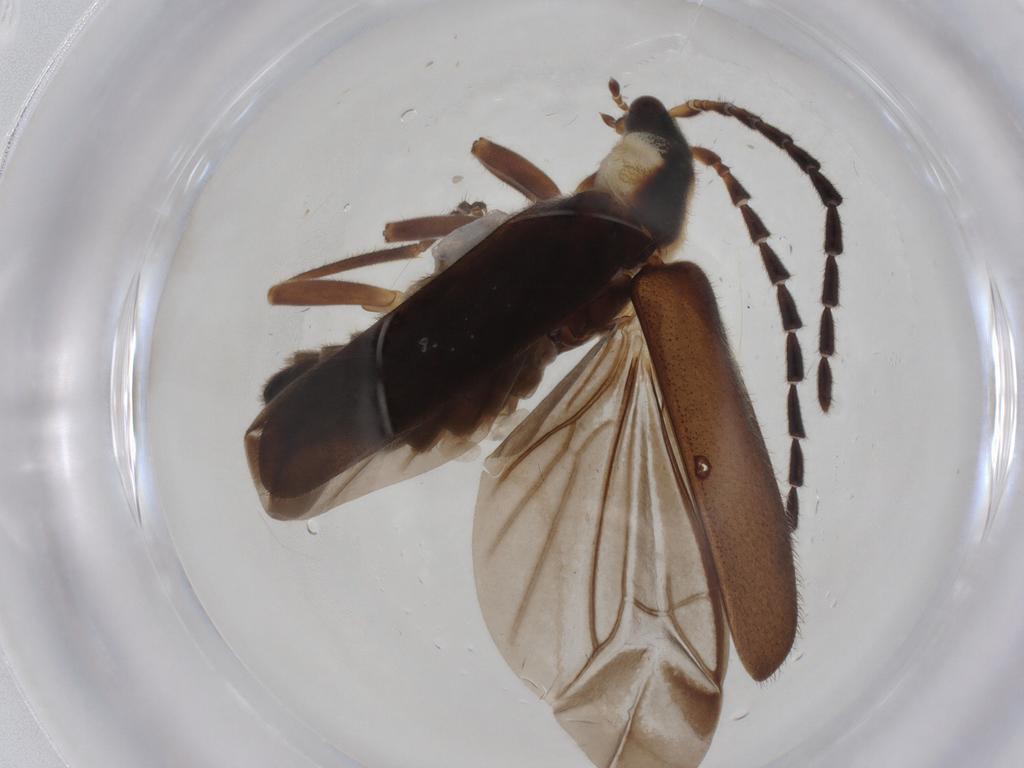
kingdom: Animalia
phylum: Arthropoda
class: Insecta
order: Coleoptera
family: Cantharidae
